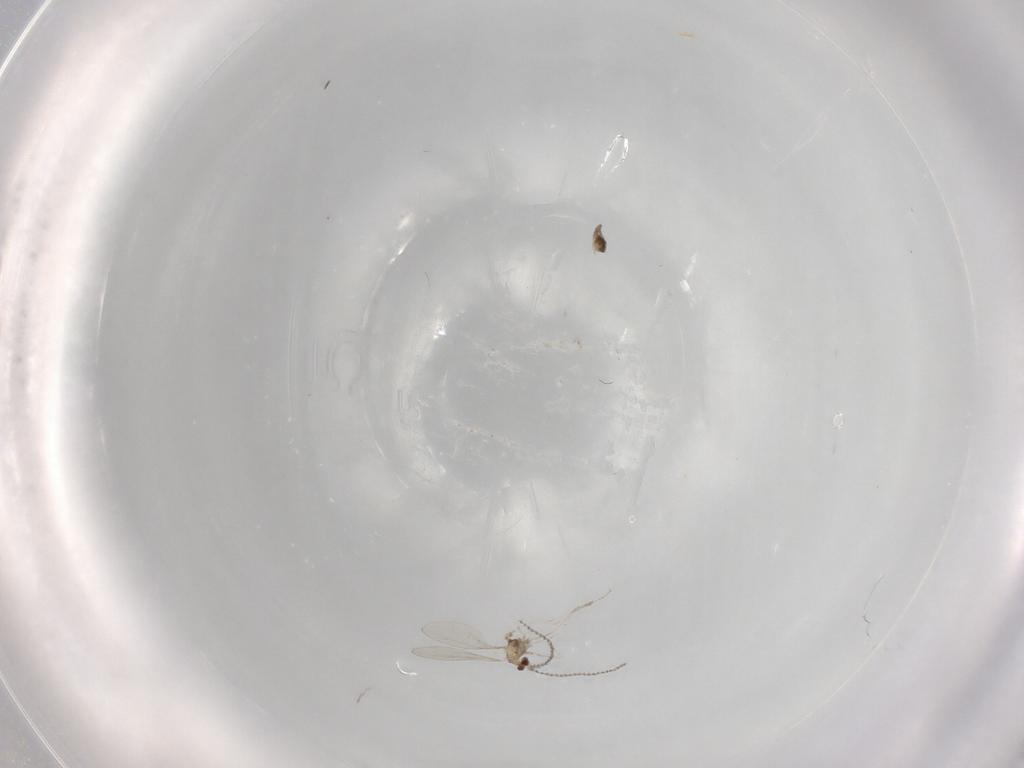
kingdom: Animalia
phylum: Arthropoda
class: Insecta
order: Diptera
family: Cecidomyiidae
